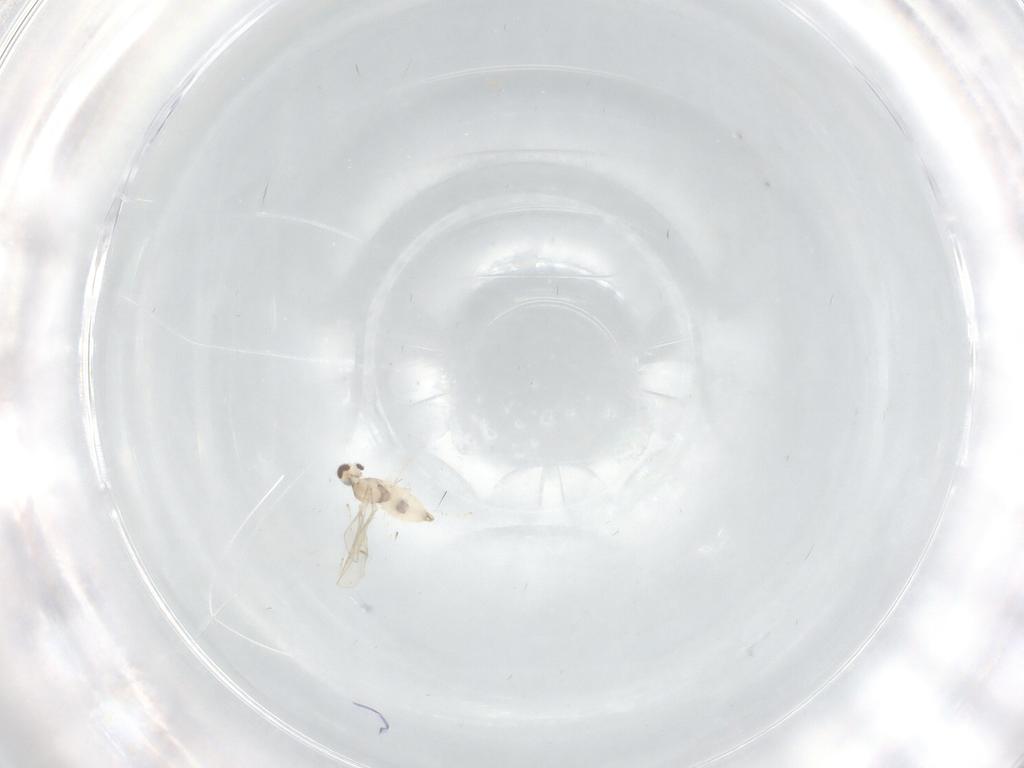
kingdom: Animalia
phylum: Arthropoda
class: Insecta
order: Diptera
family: Cecidomyiidae
